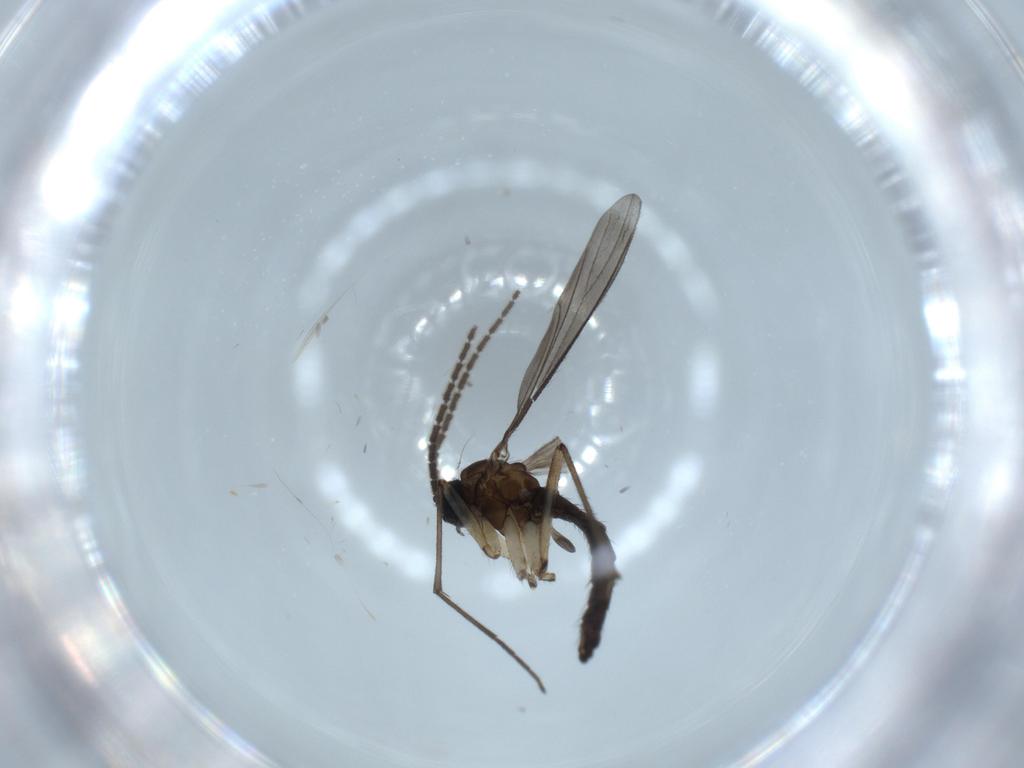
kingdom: Animalia
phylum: Arthropoda
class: Insecta
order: Diptera
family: Sciaridae
